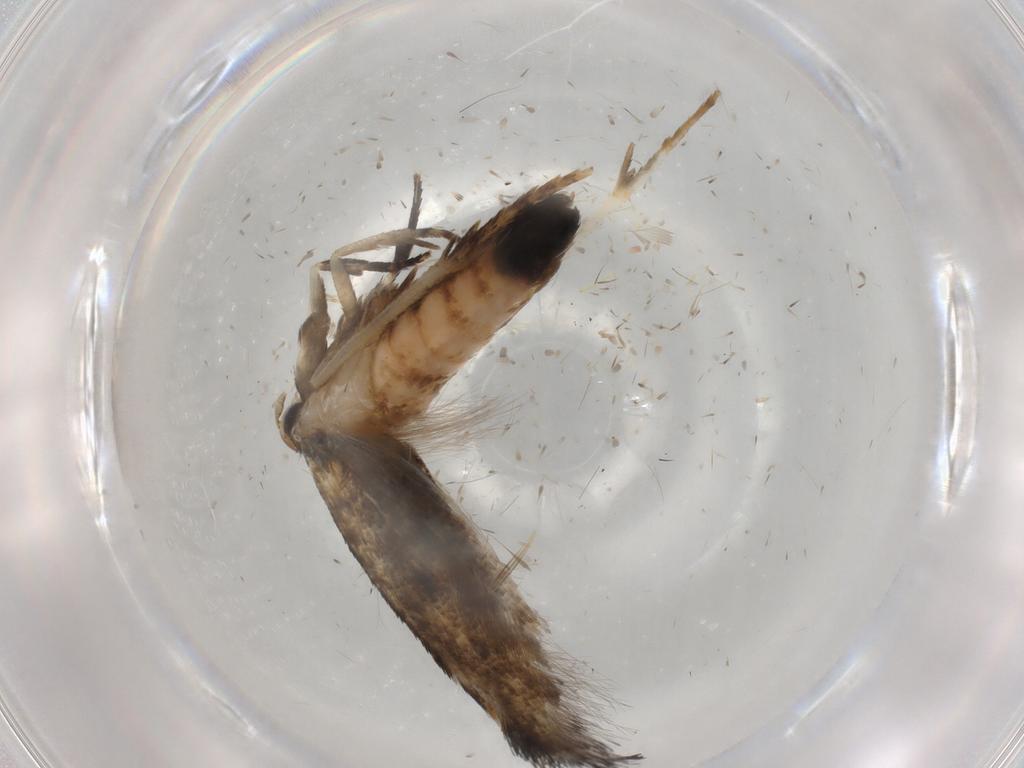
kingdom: Animalia
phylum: Arthropoda
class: Insecta
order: Lepidoptera
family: Cosmopterigidae
